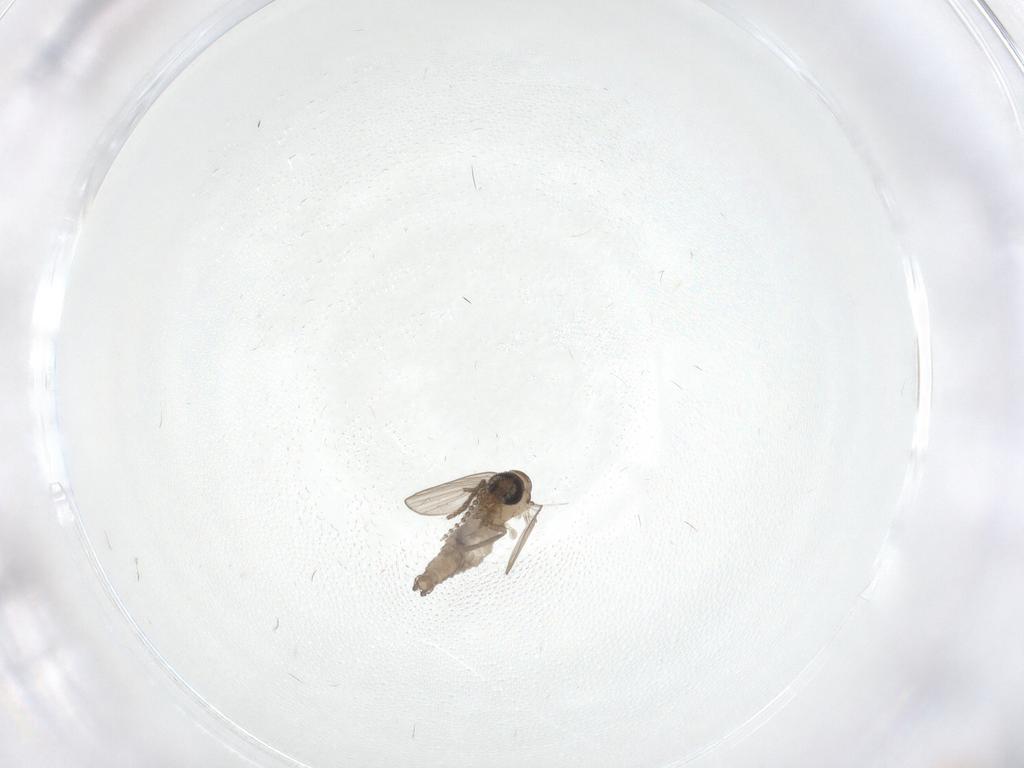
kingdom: Animalia
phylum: Arthropoda
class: Insecta
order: Diptera
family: Psychodidae
